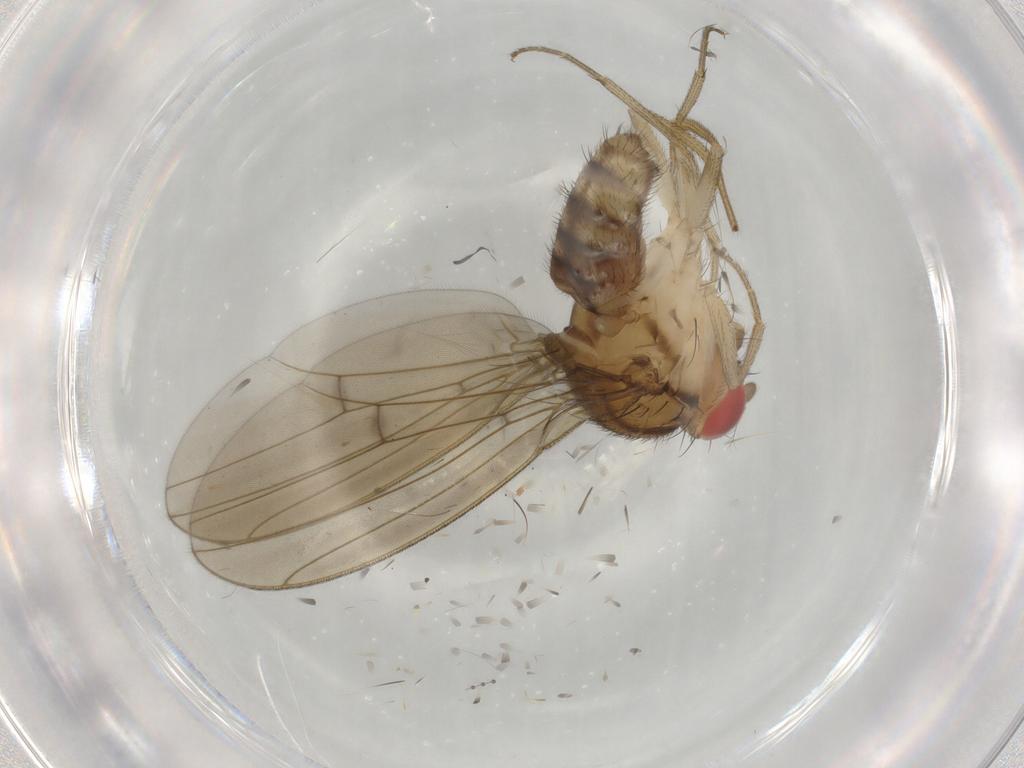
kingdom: Animalia
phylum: Arthropoda
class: Insecta
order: Diptera
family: Drosophilidae
